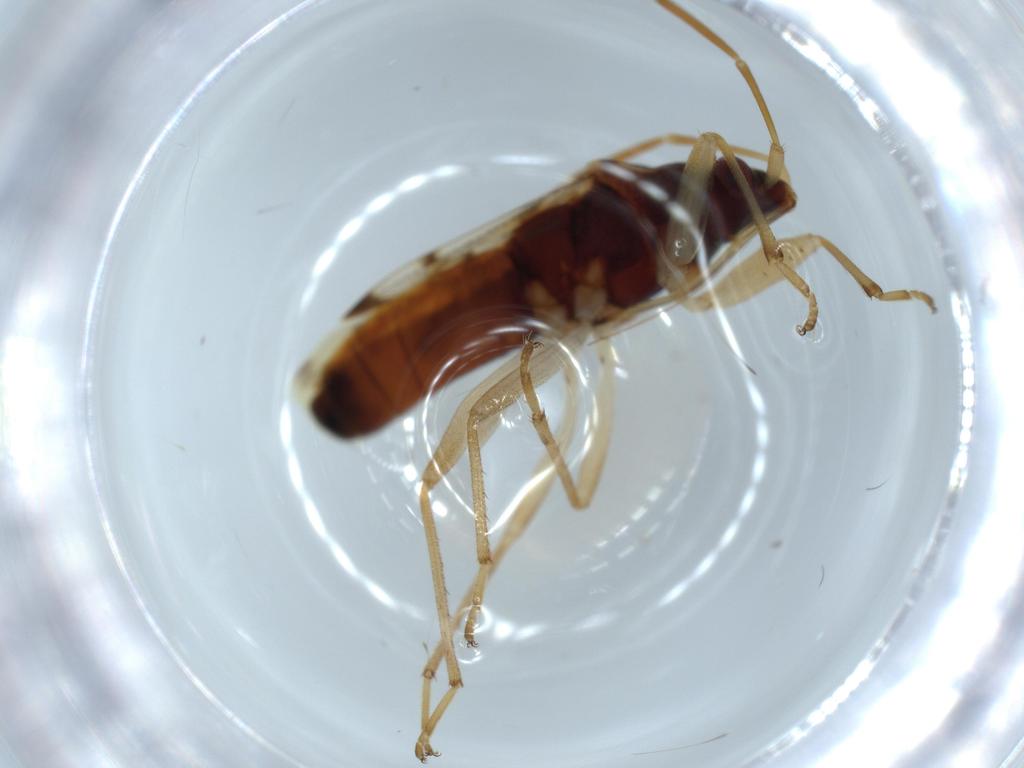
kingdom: Animalia
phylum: Arthropoda
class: Insecta
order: Hemiptera
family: Rhyparochromidae
